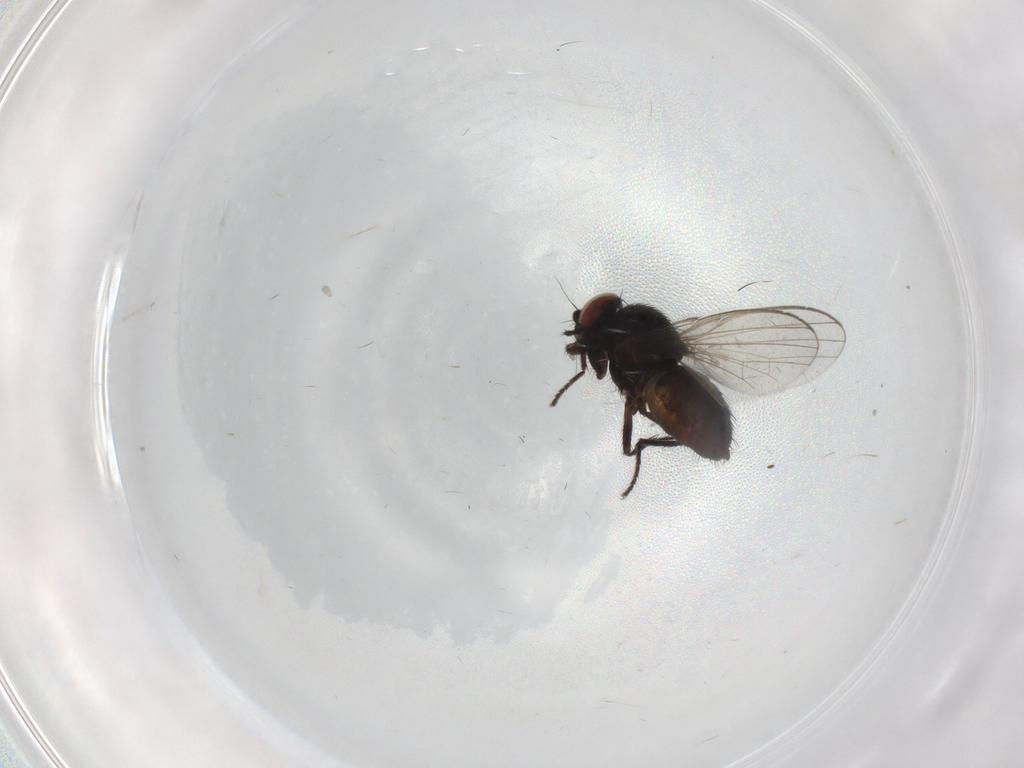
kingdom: Animalia
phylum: Arthropoda
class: Insecta
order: Diptera
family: Milichiidae
